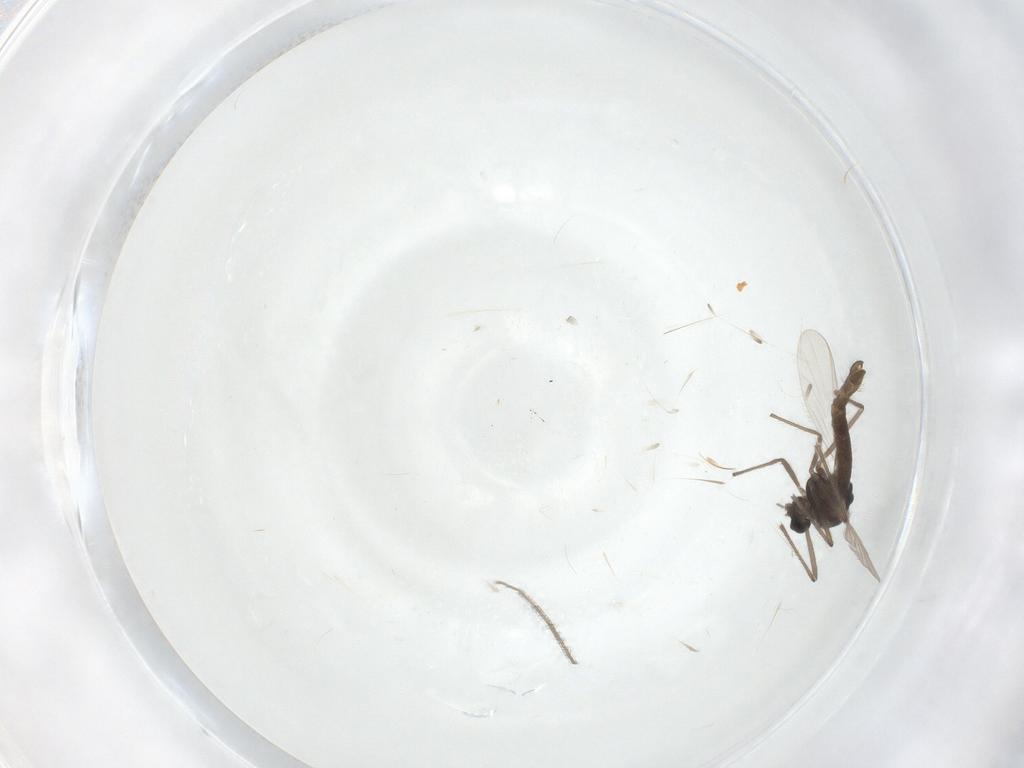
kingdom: Animalia
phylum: Arthropoda
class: Insecta
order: Diptera
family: Chironomidae
